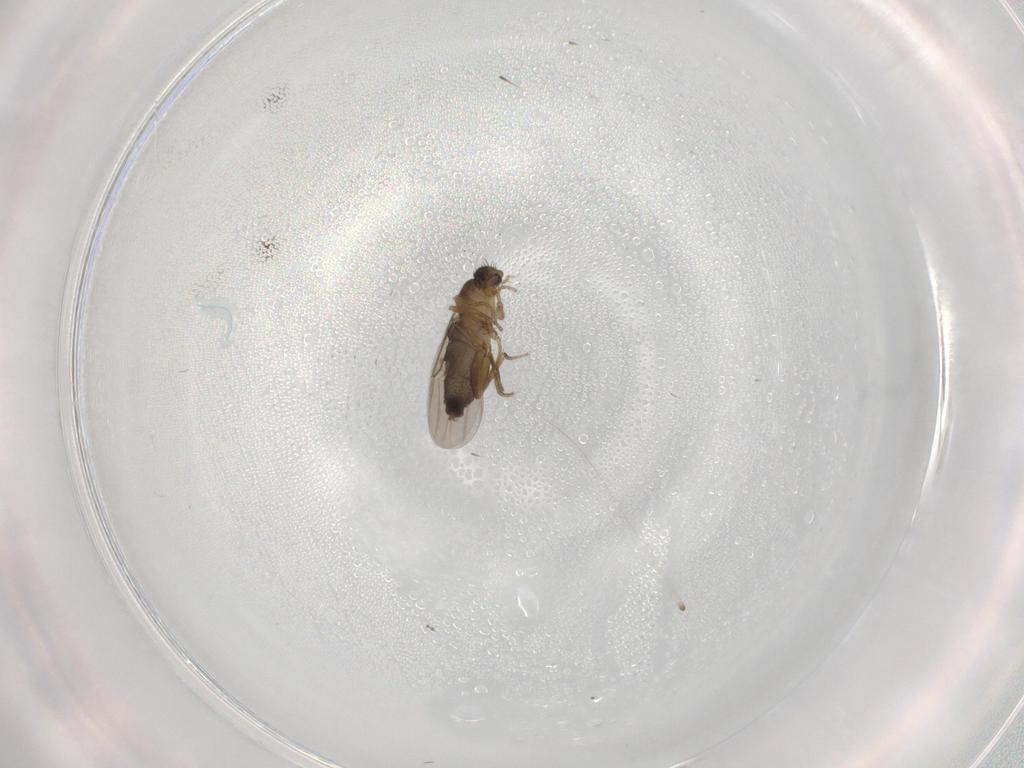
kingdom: Animalia
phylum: Arthropoda
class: Insecta
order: Diptera
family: Phoridae
